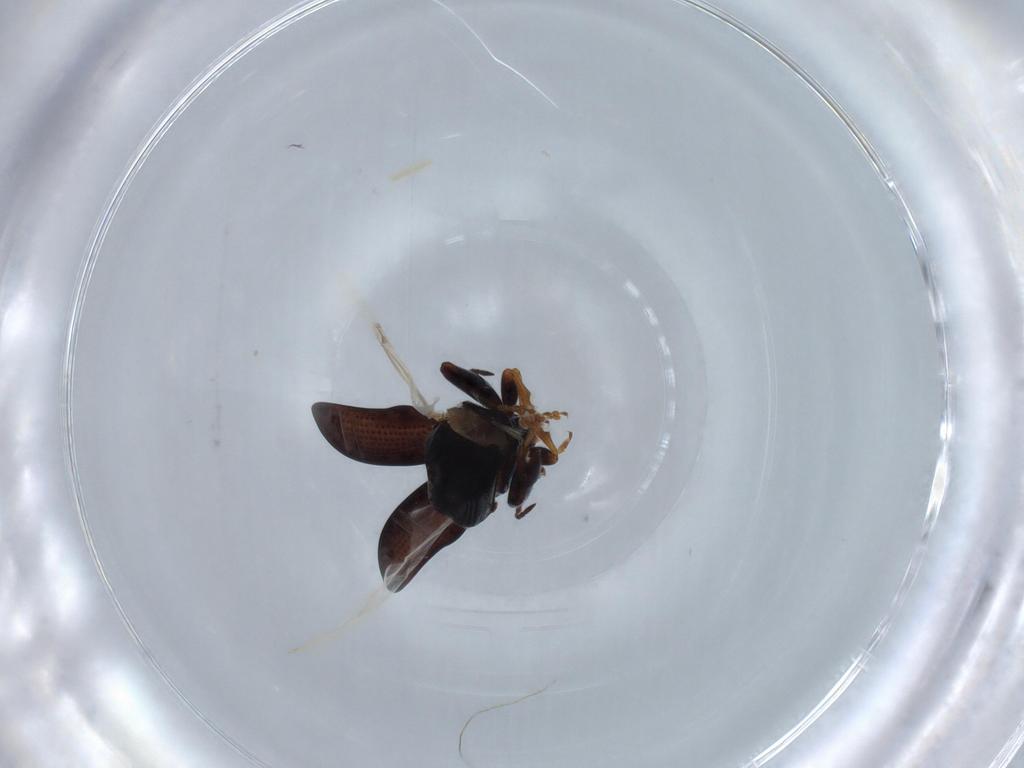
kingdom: Animalia
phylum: Arthropoda
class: Insecta
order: Coleoptera
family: Chrysomelidae
